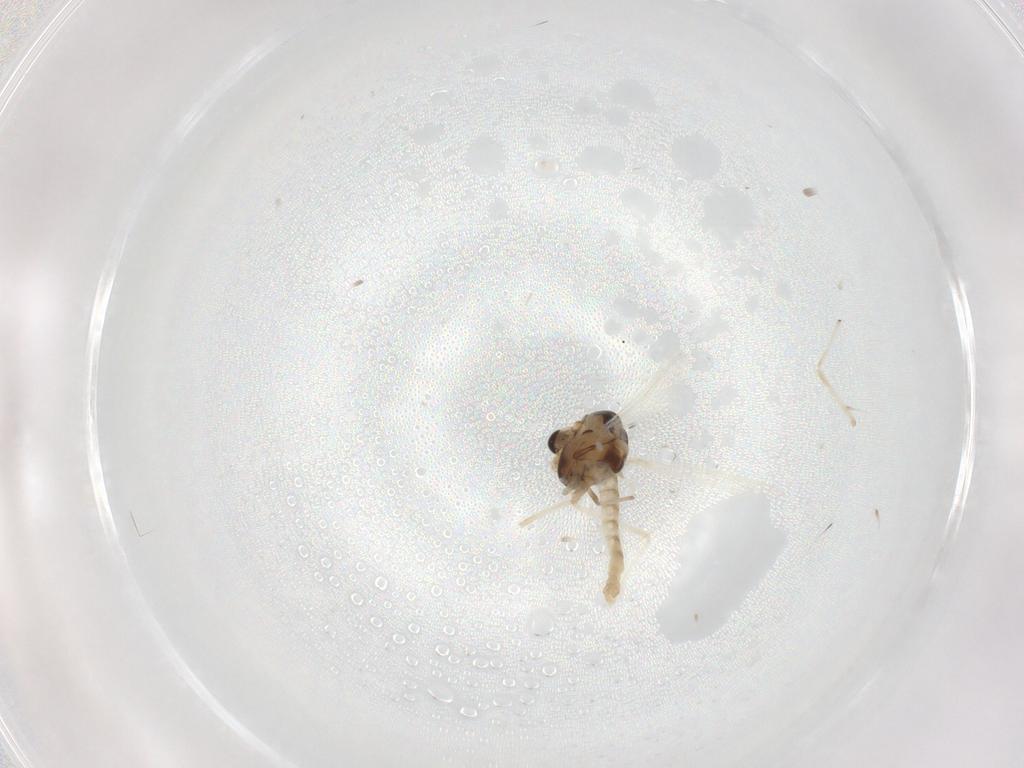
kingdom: Animalia
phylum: Arthropoda
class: Insecta
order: Diptera
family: Chironomidae
